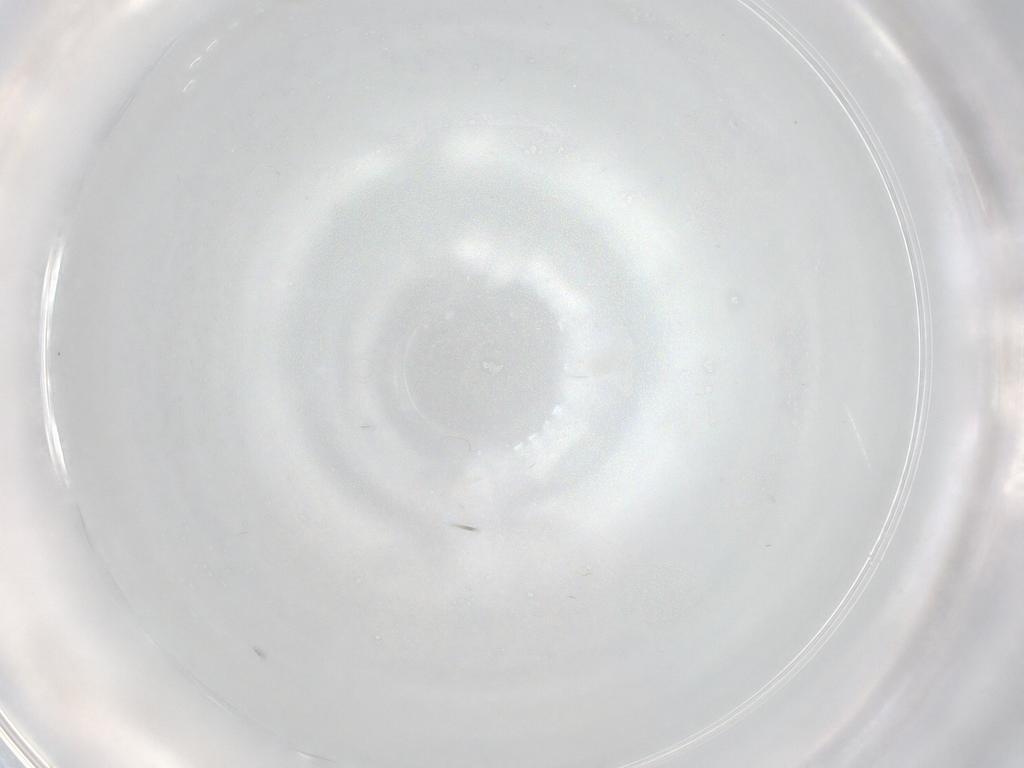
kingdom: Animalia
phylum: Arthropoda
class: Insecta
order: Diptera
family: Chironomidae
